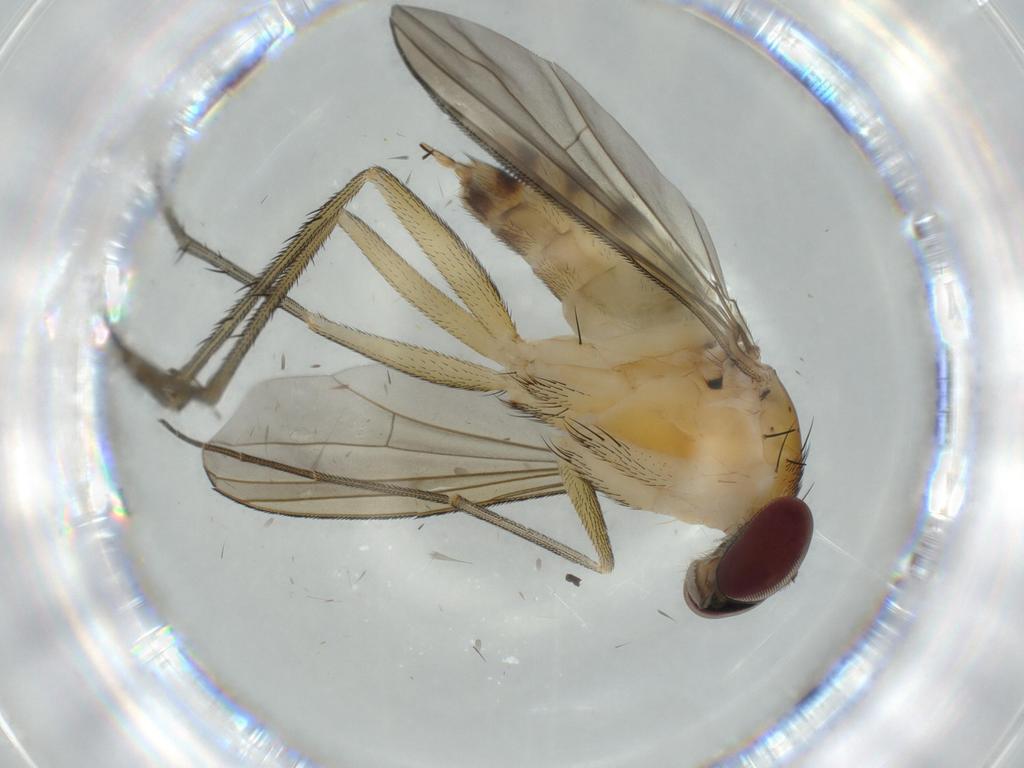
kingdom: Animalia
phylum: Arthropoda
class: Insecta
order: Diptera
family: Dolichopodidae
